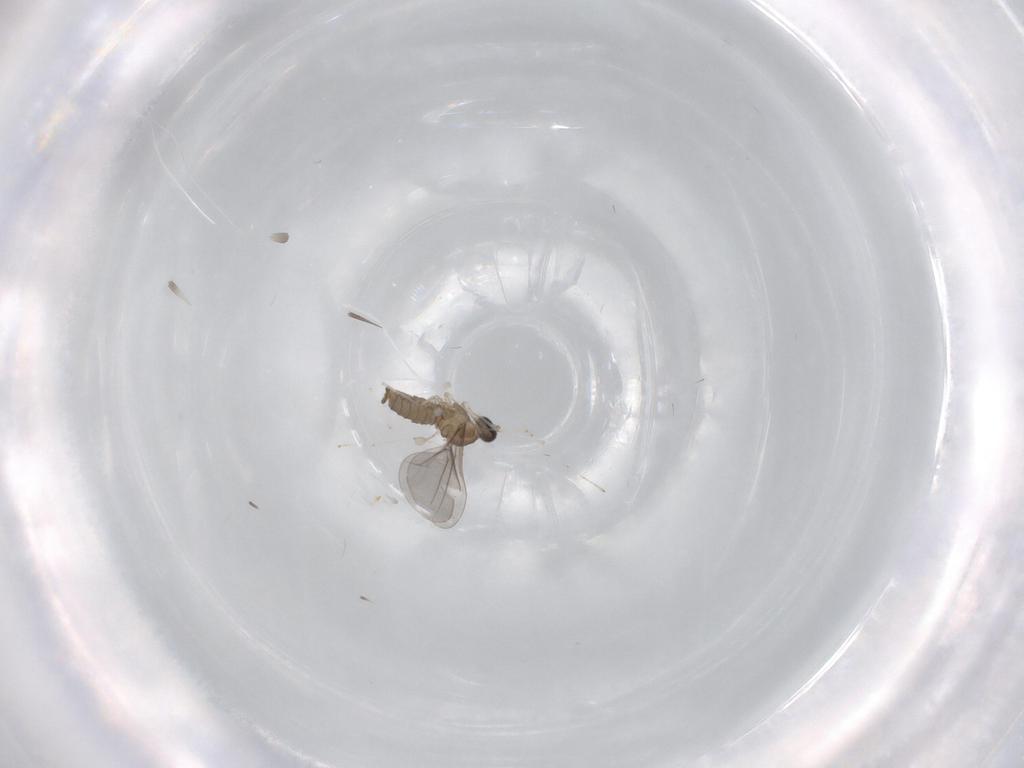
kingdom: Animalia
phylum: Arthropoda
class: Insecta
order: Diptera
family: Cecidomyiidae
